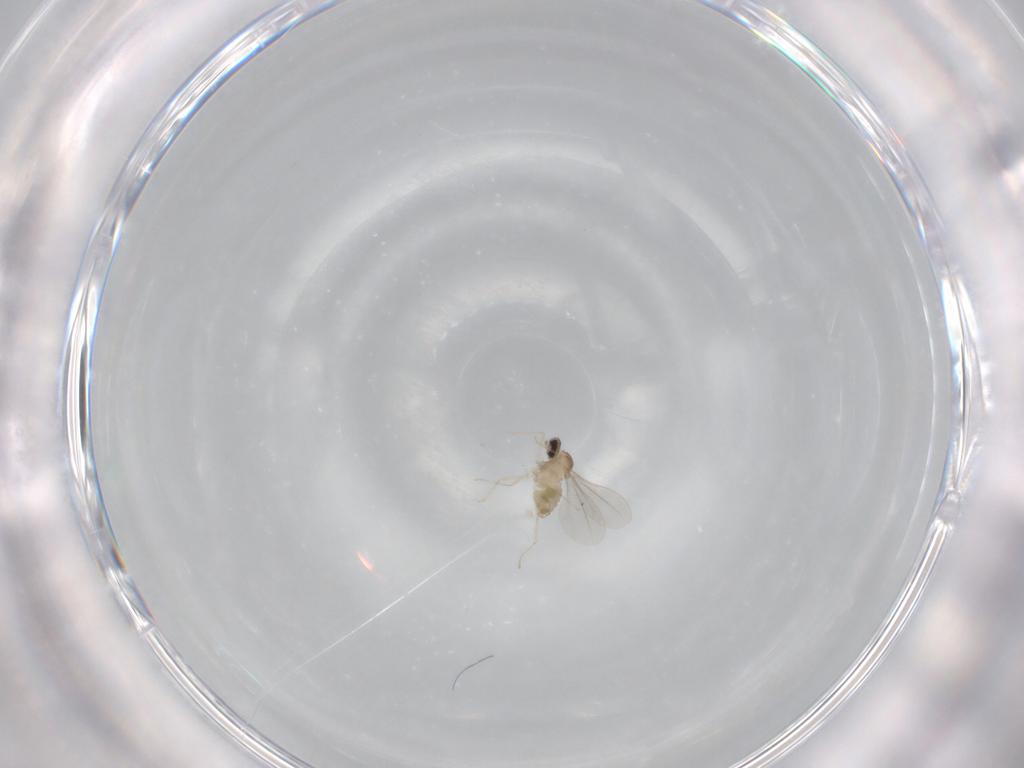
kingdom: Animalia
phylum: Arthropoda
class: Insecta
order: Diptera
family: Cecidomyiidae
